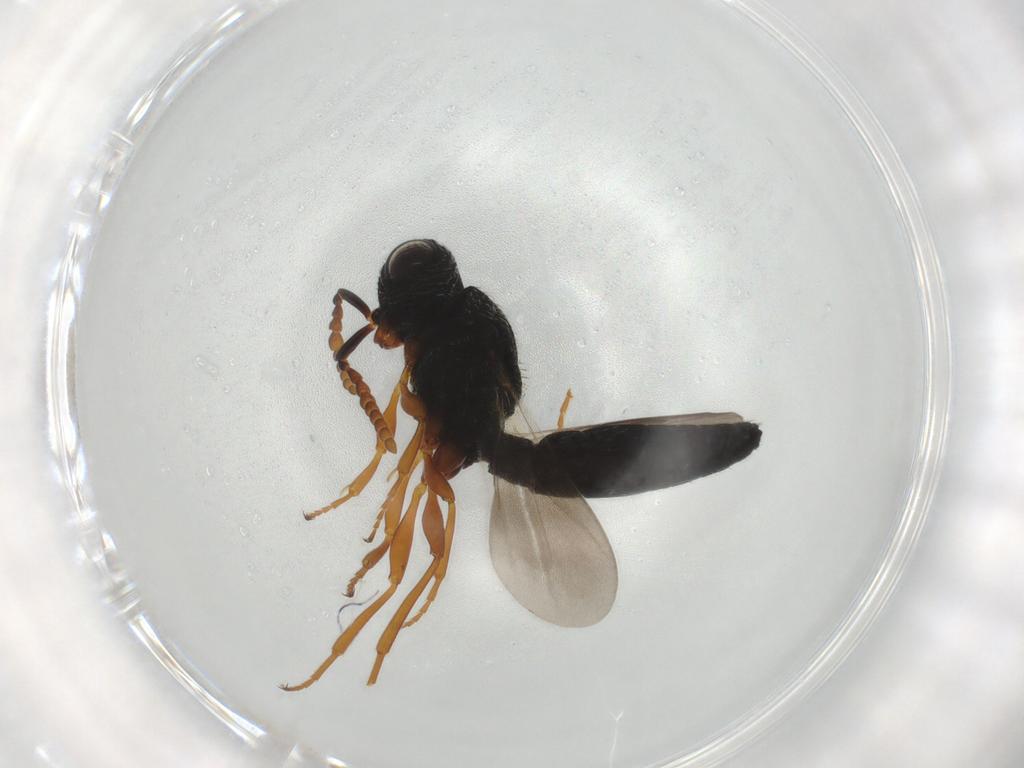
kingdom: Animalia
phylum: Arthropoda
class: Insecta
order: Hymenoptera
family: Scelionidae
